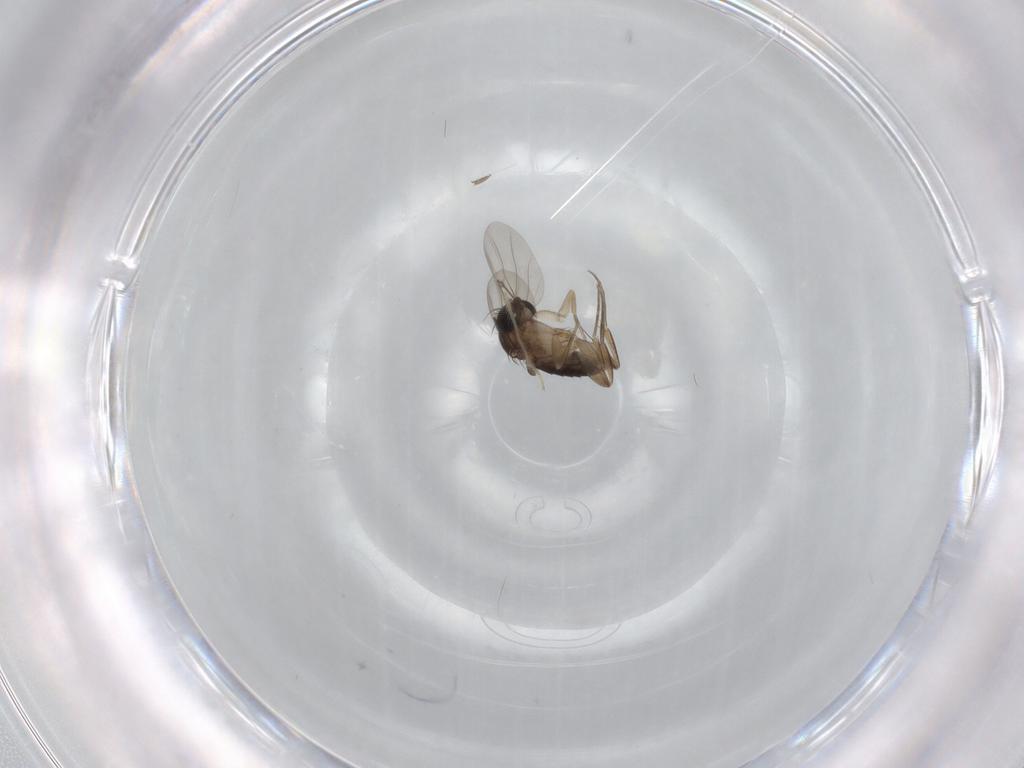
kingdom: Animalia
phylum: Arthropoda
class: Insecta
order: Diptera
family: Phoridae
